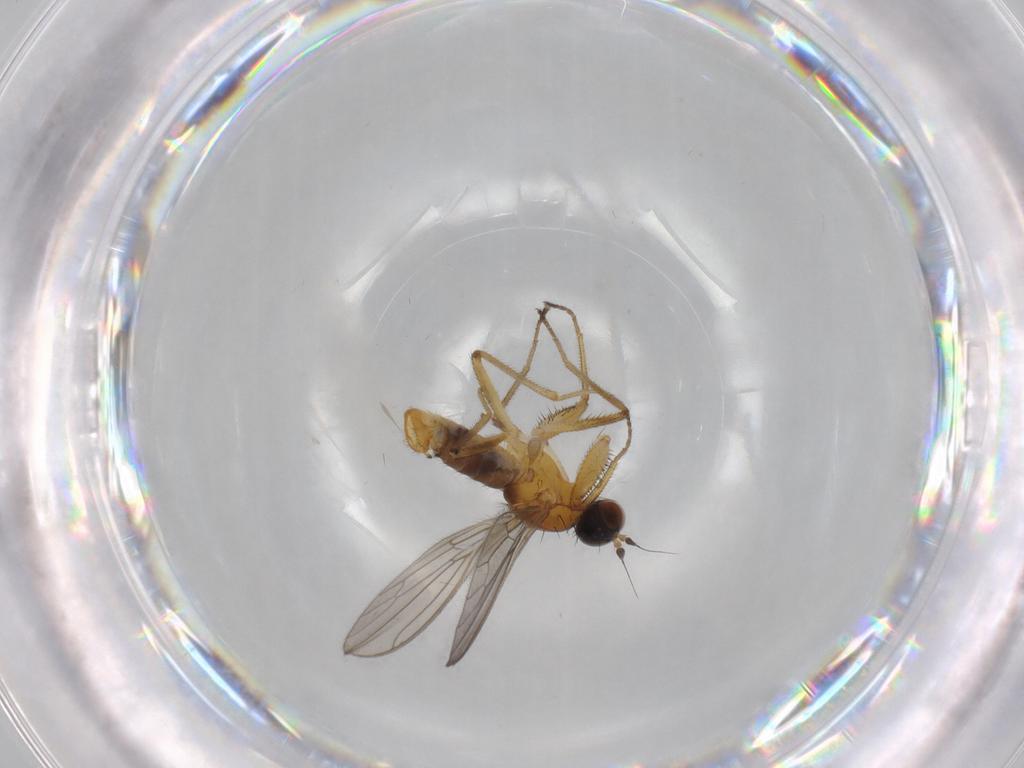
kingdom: Animalia
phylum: Arthropoda
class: Insecta
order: Diptera
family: Empididae
